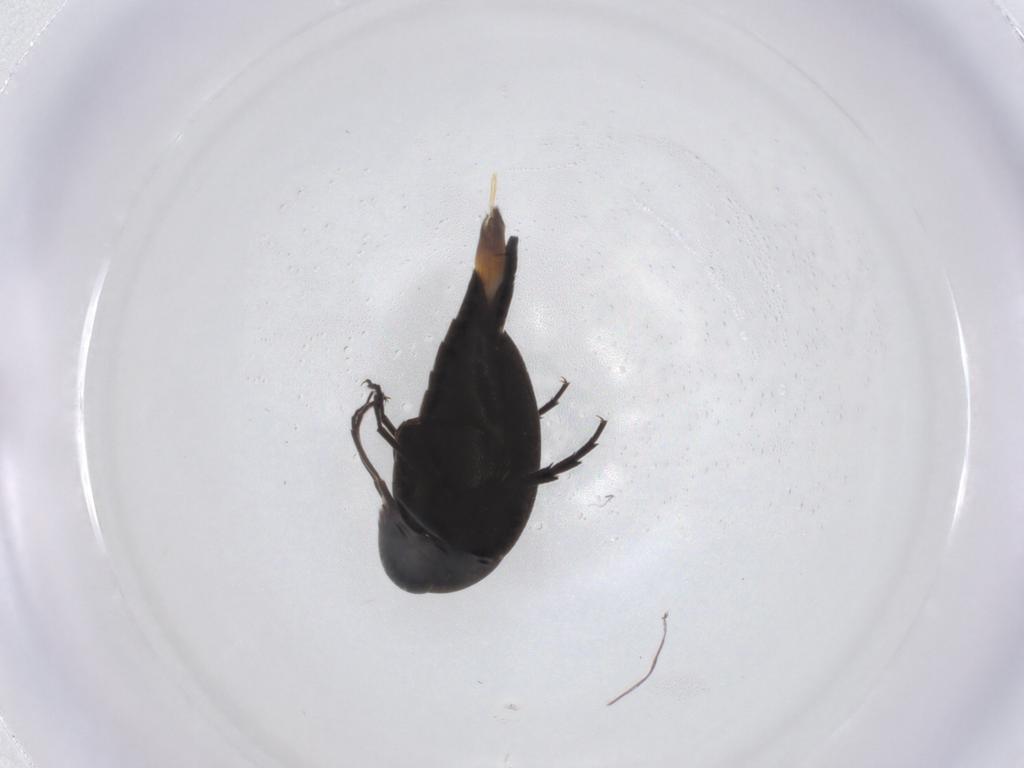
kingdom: Animalia
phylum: Arthropoda
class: Insecta
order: Coleoptera
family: Mordellidae
